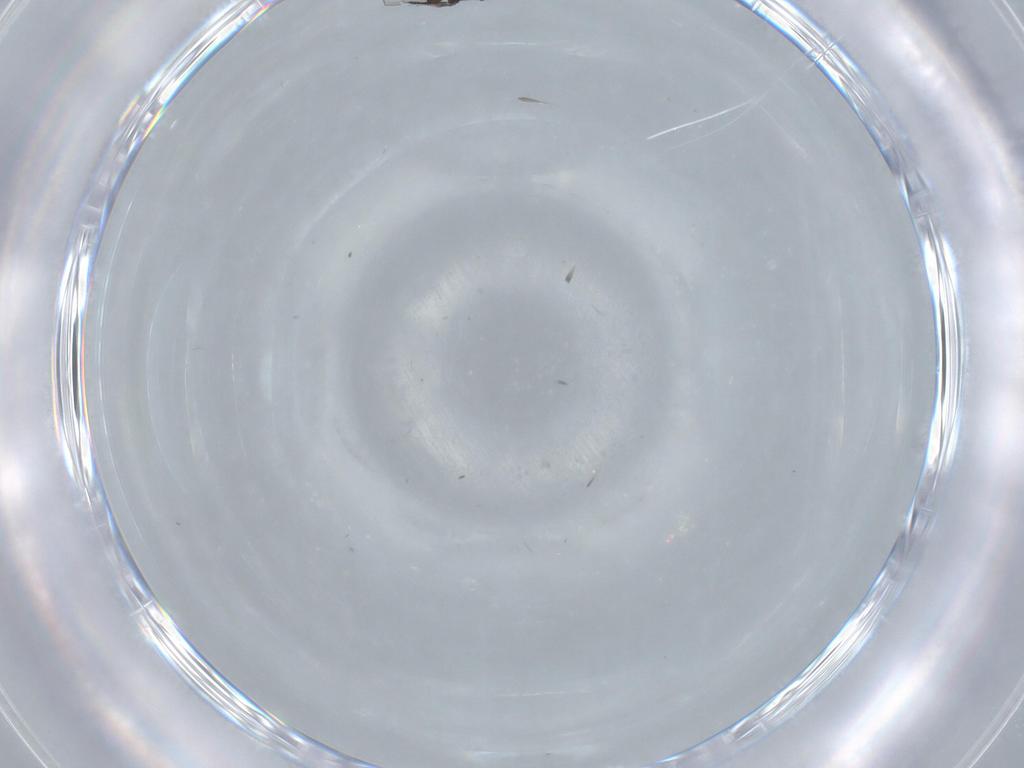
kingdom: Animalia
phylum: Arthropoda
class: Insecta
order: Diptera
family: Phoridae
